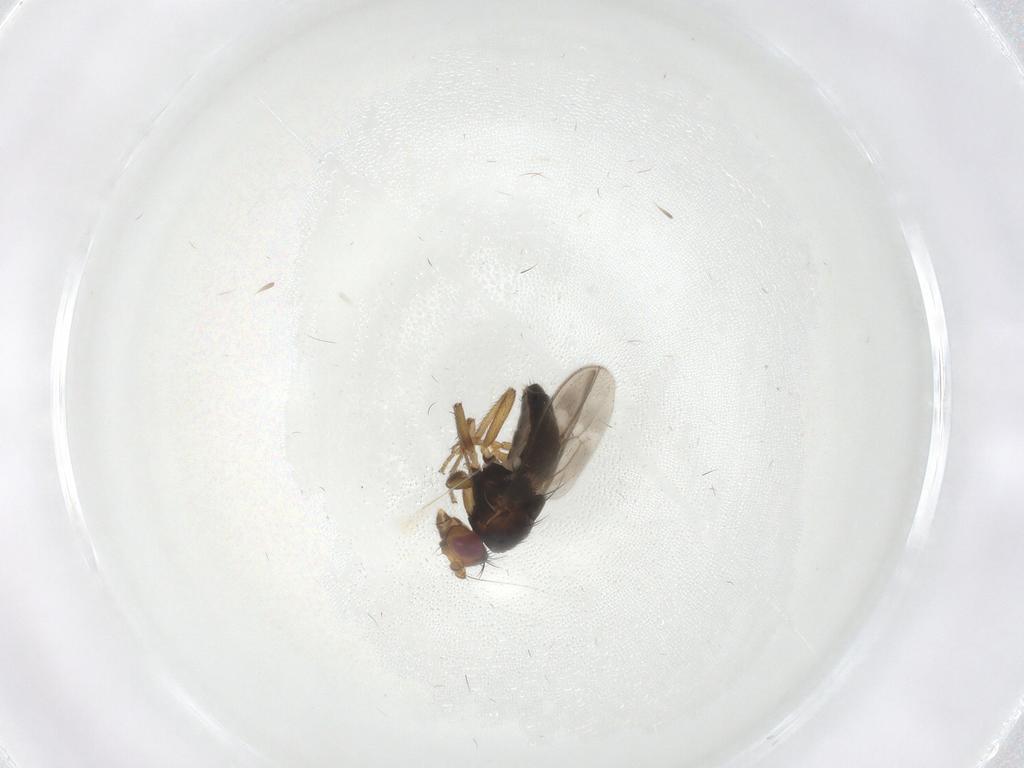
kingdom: Animalia
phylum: Arthropoda
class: Insecta
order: Diptera
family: Sphaeroceridae
